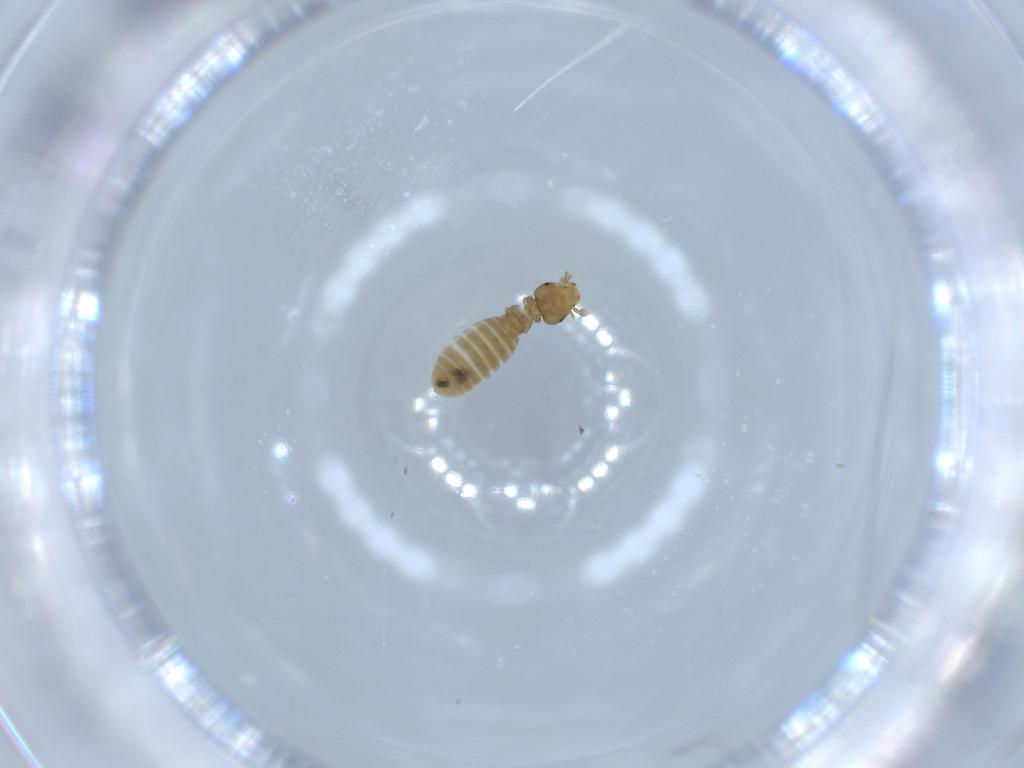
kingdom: Animalia
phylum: Arthropoda
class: Insecta
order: Psocodea
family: Liposcelididae
